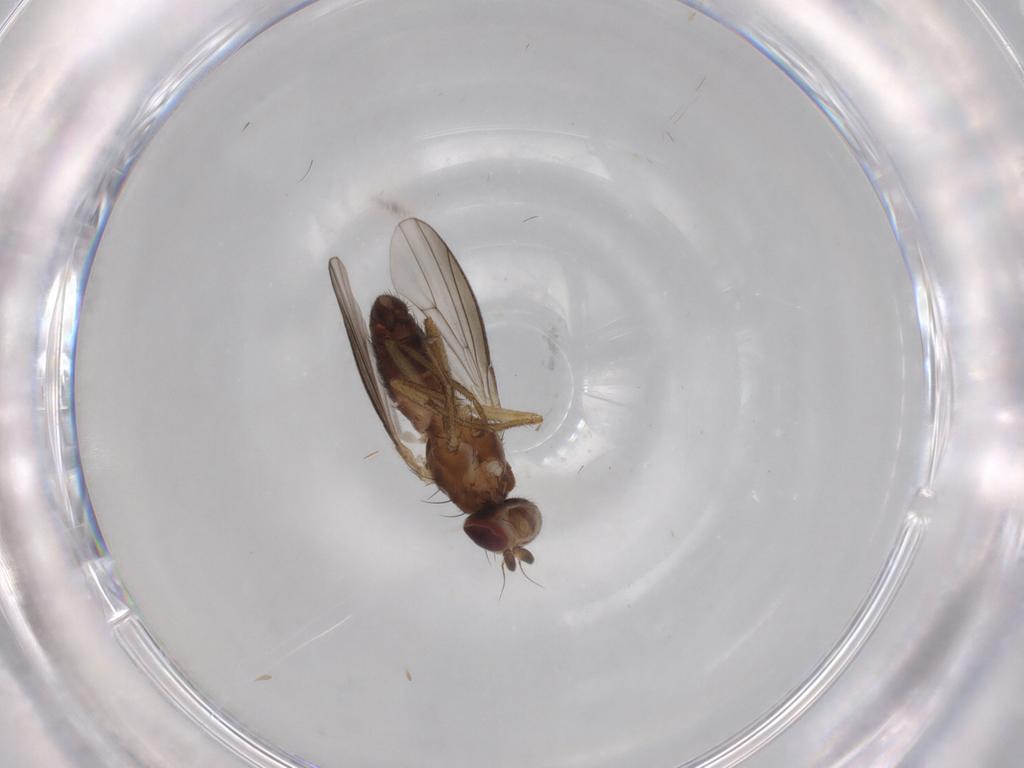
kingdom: Animalia
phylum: Arthropoda
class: Insecta
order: Diptera
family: Heleomyzidae
